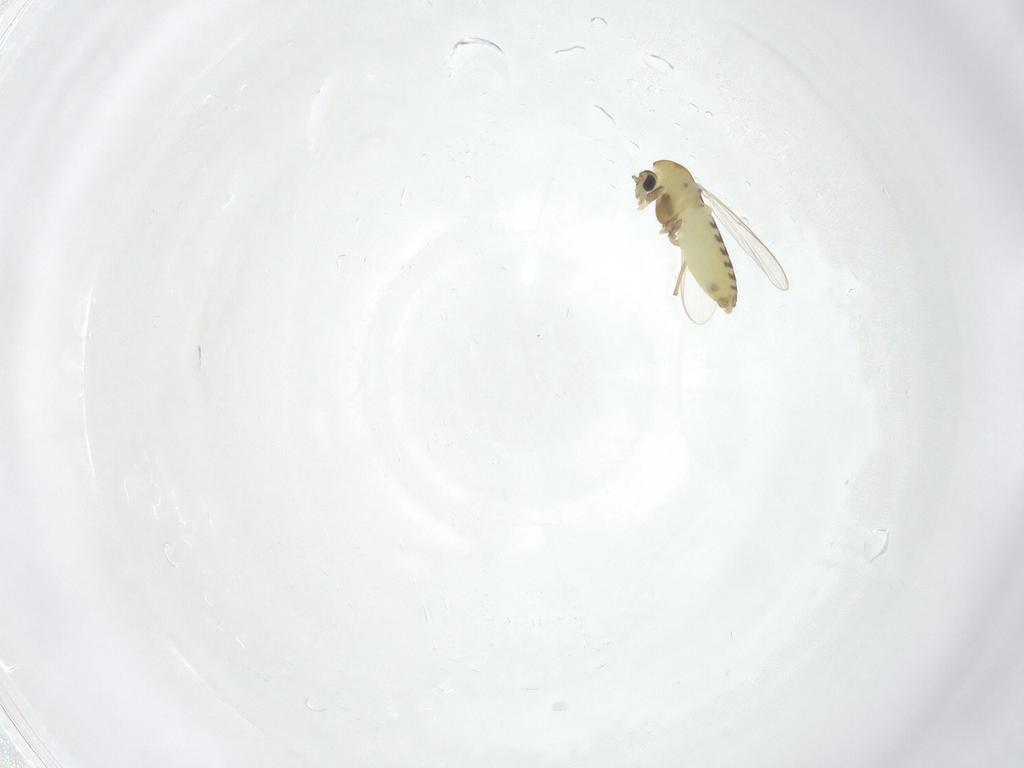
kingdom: Animalia
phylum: Arthropoda
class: Insecta
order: Diptera
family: Chironomidae
